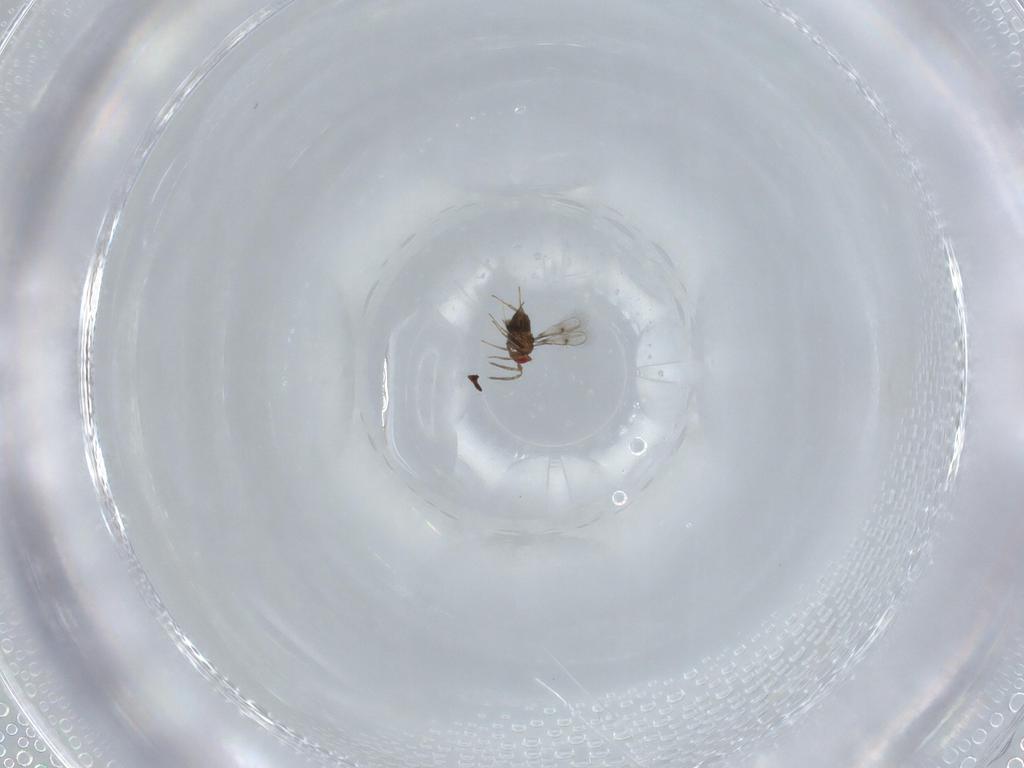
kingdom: Animalia
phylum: Arthropoda
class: Insecta
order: Hymenoptera
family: Trichogrammatidae
